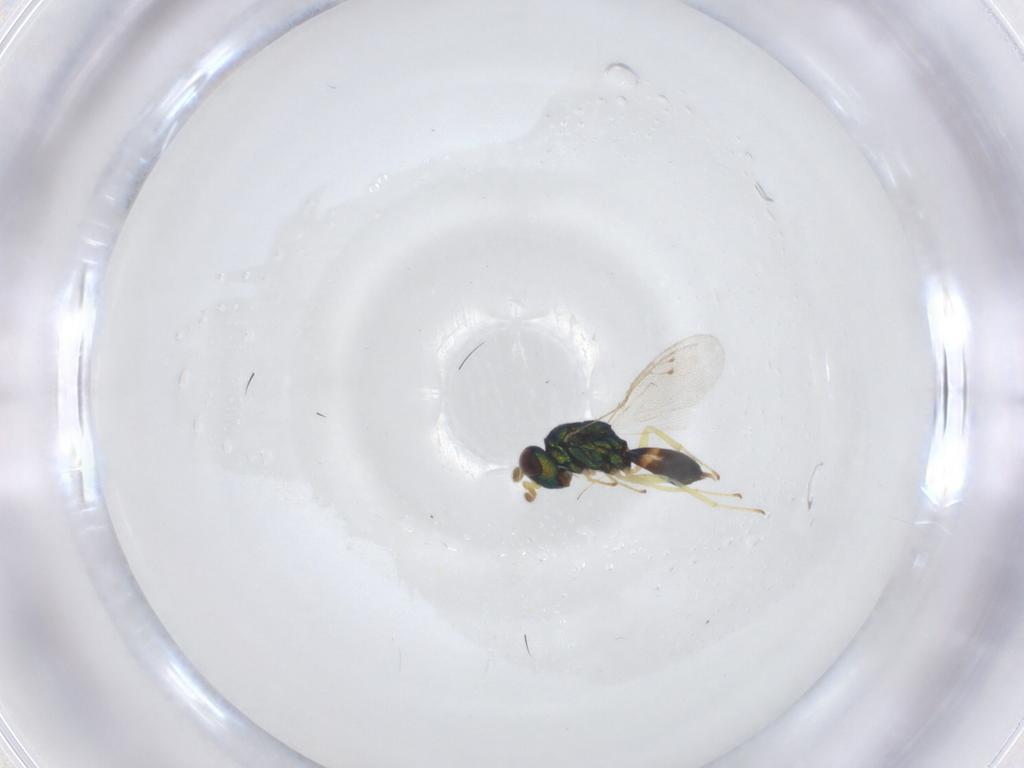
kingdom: Animalia
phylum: Arthropoda
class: Insecta
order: Hymenoptera
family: Pteromalidae
